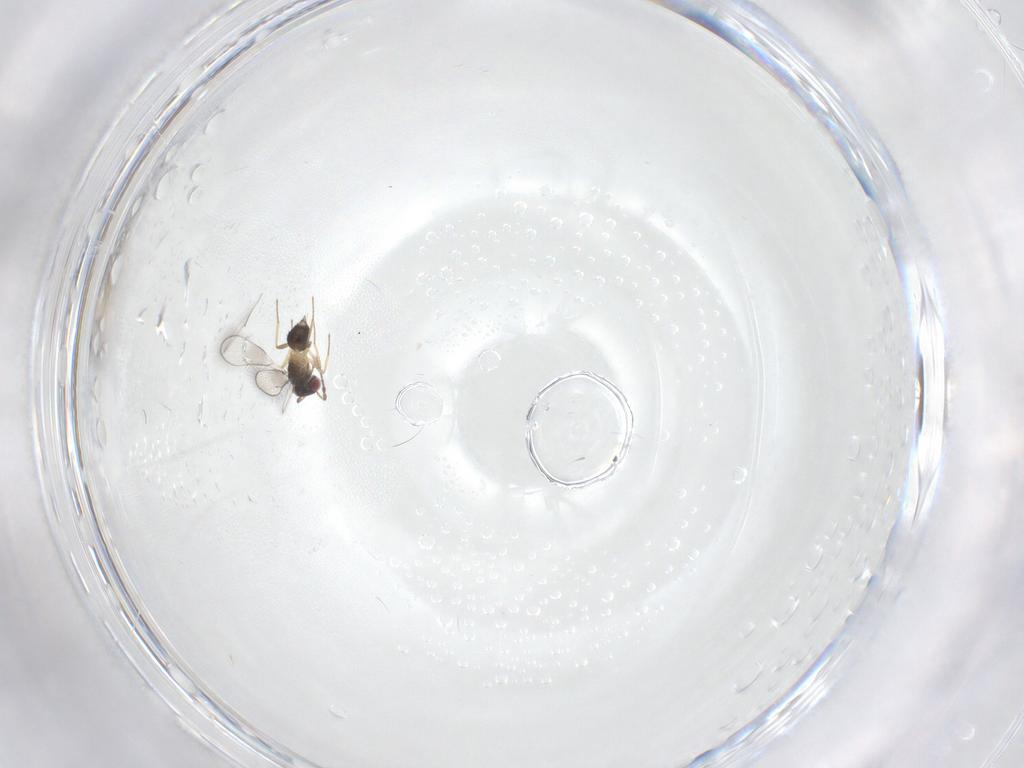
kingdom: Animalia
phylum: Arthropoda
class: Insecta
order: Hymenoptera
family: Eulophidae
